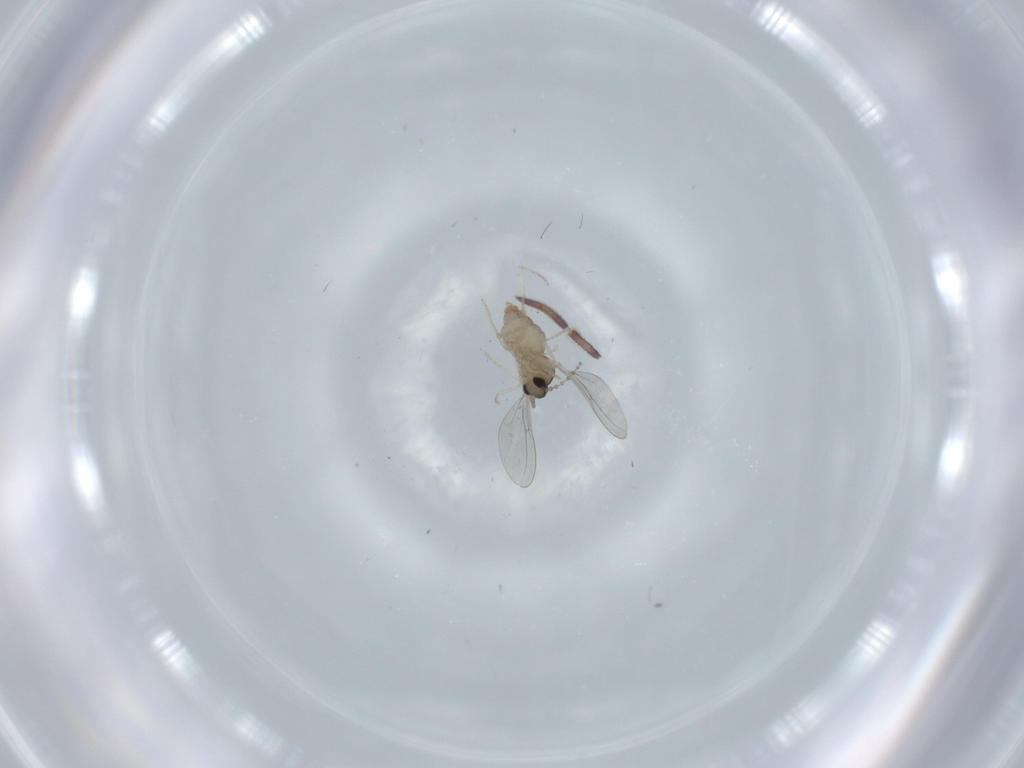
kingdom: Animalia
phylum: Arthropoda
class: Insecta
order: Diptera
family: Cecidomyiidae
